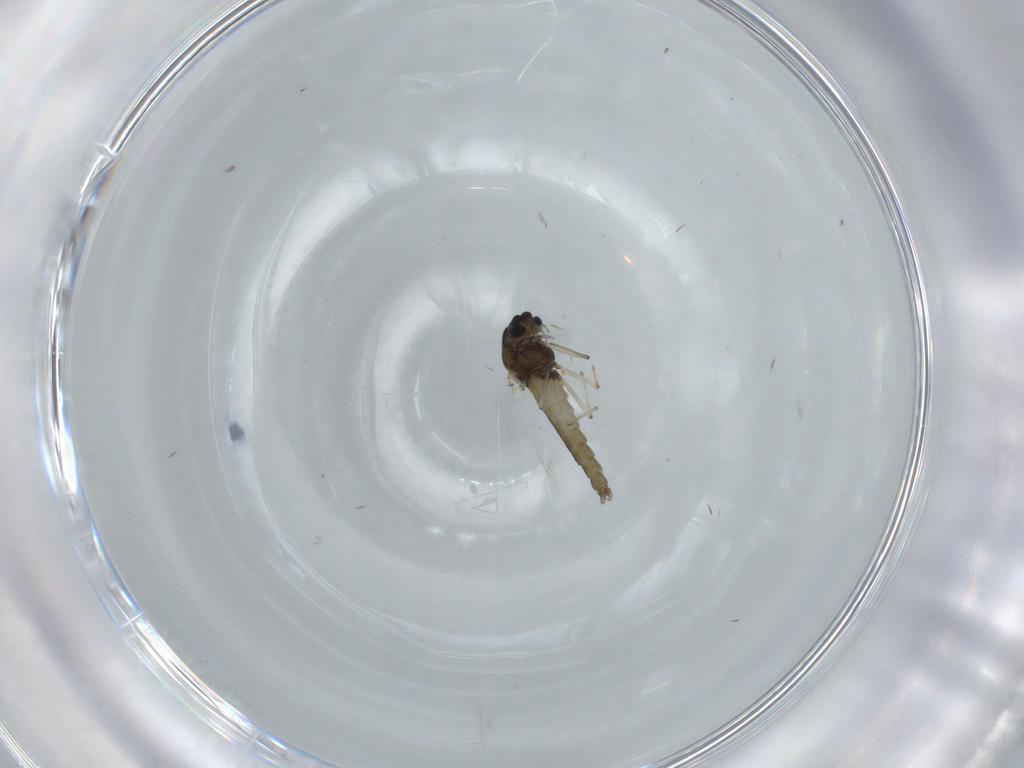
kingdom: Animalia
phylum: Arthropoda
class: Insecta
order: Diptera
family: Chironomidae
